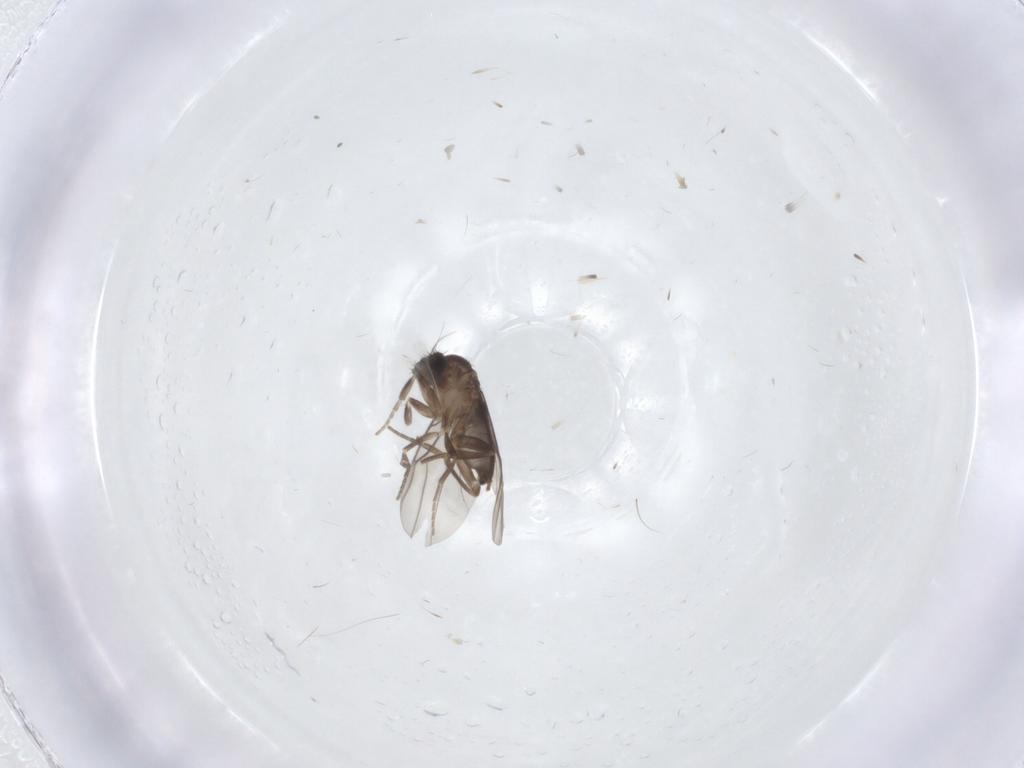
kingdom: Animalia
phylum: Arthropoda
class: Insecta
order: Diptera
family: Phoridae
